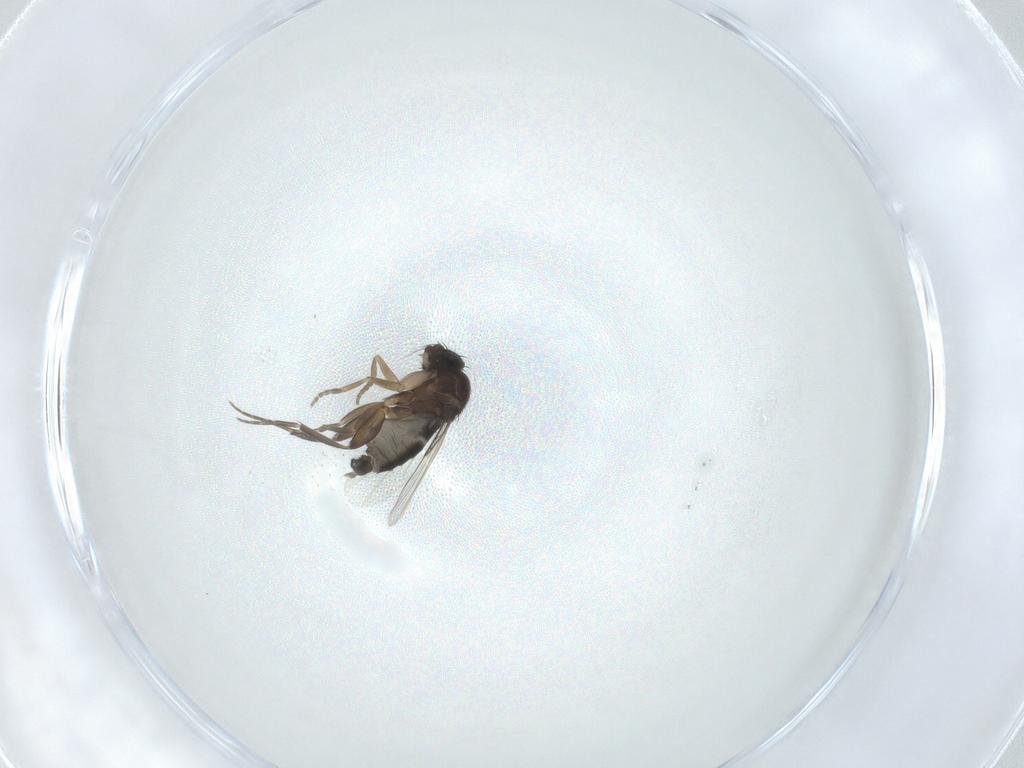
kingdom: Animalia
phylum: Arthropoda
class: Insecta
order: Diptera
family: Phoridae
